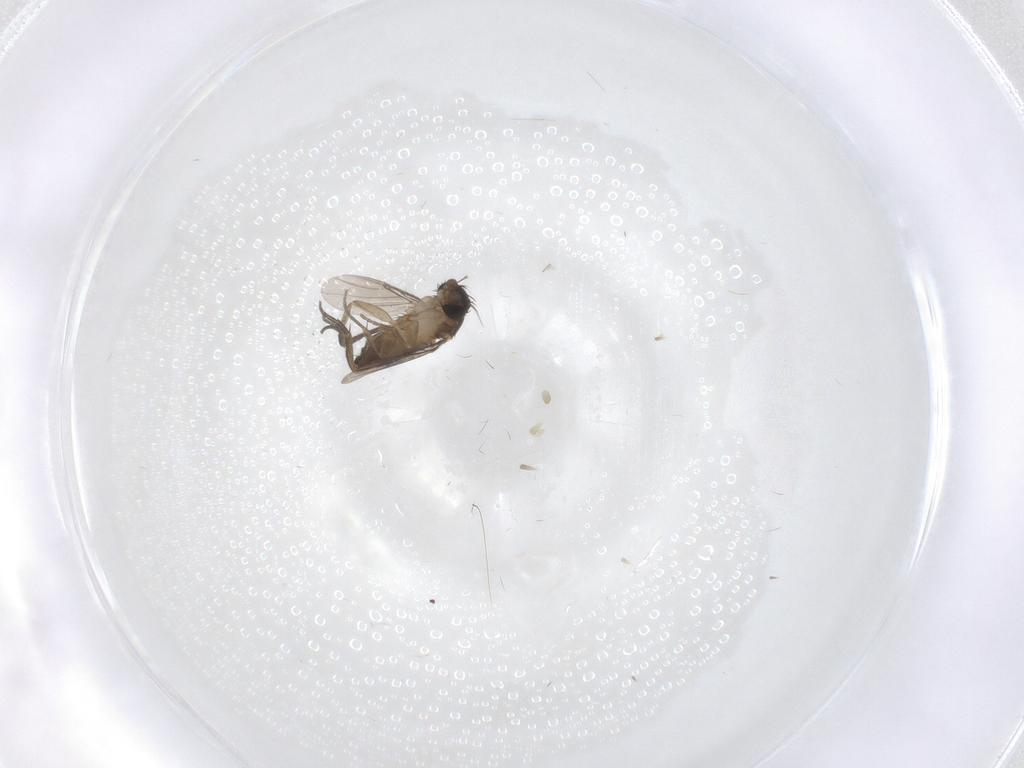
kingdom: Animalia
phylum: Arthropoda
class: Insecta
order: Diptera
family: Phoridae
